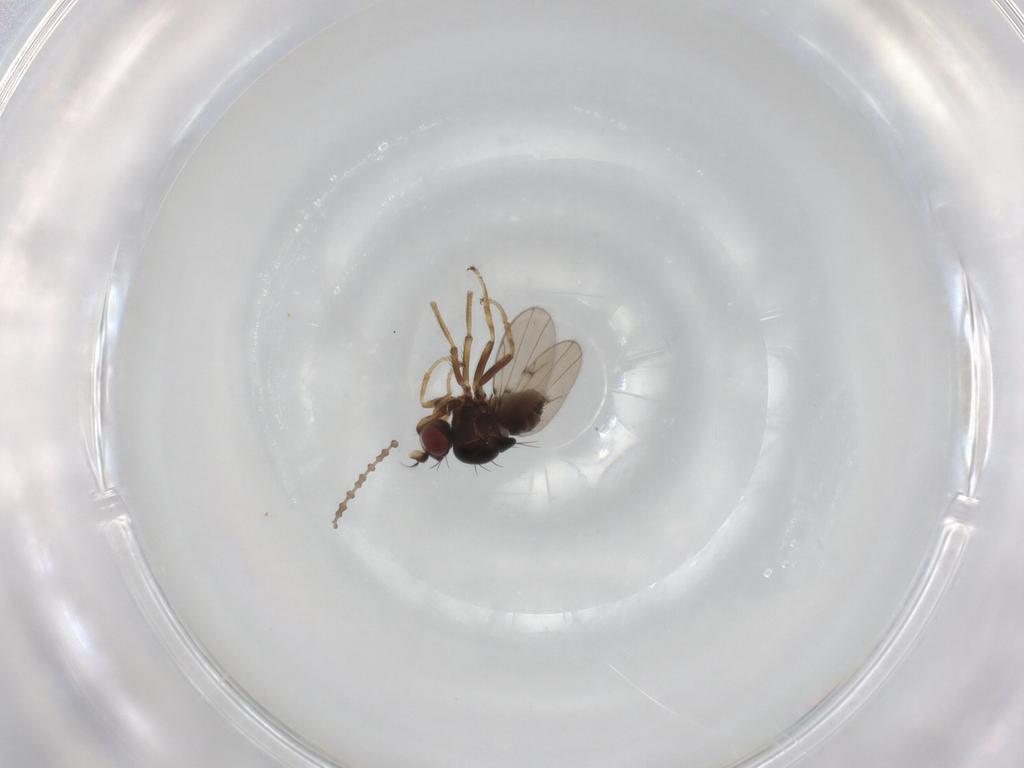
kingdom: Animalia
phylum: Arthropoda
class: Insecta
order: Diptera
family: Ephydridae
